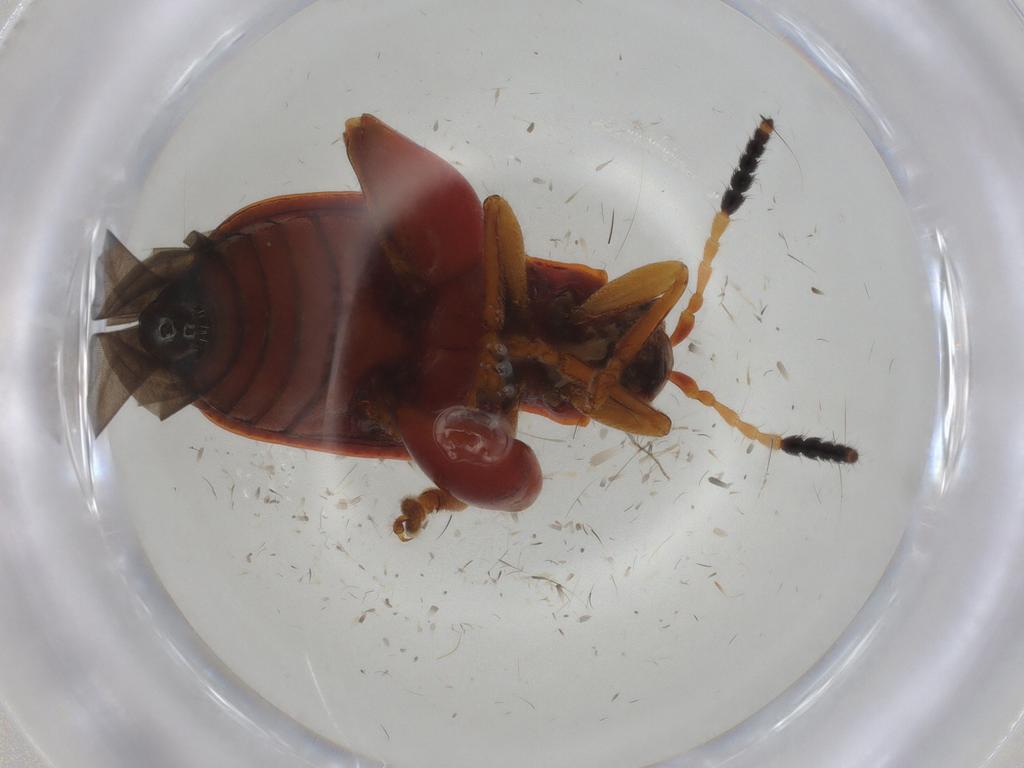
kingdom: Animalia
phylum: Arthropoda
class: Insecta
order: Coleoptera
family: Chrysomelidae
